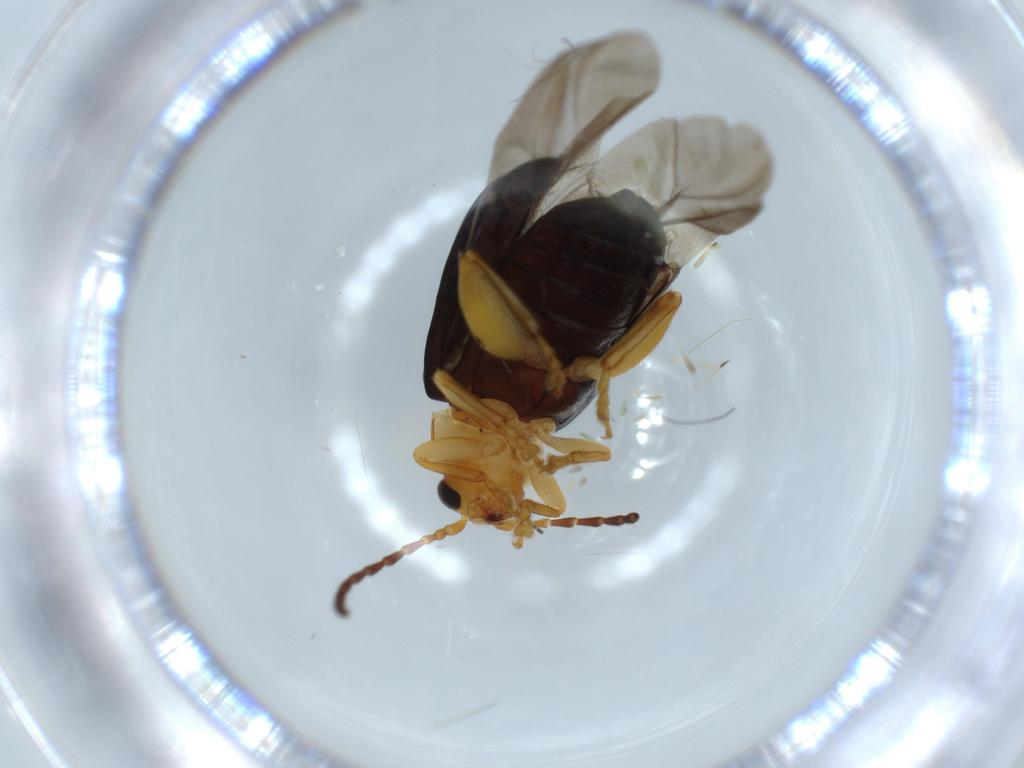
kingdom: Animalia
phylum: Arthropoda
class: Insecta
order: Coleoptera
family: Chrysomelidae
